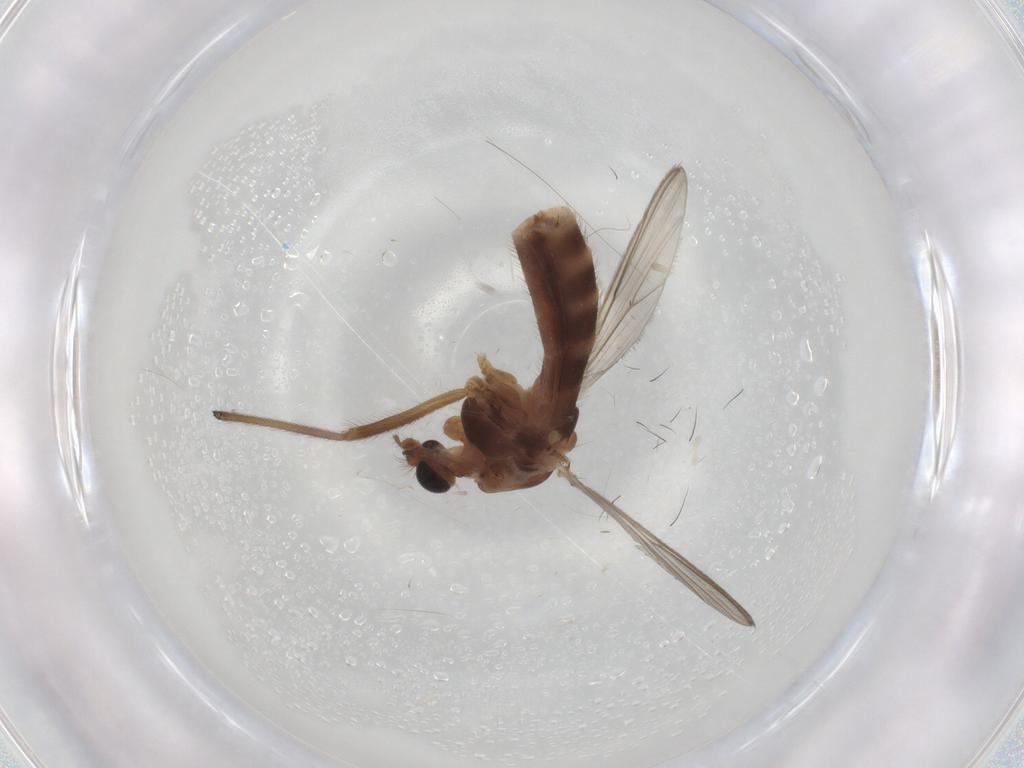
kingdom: Animalia
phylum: Arthropoda
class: Insecta
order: Diptera
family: Chironomidae
